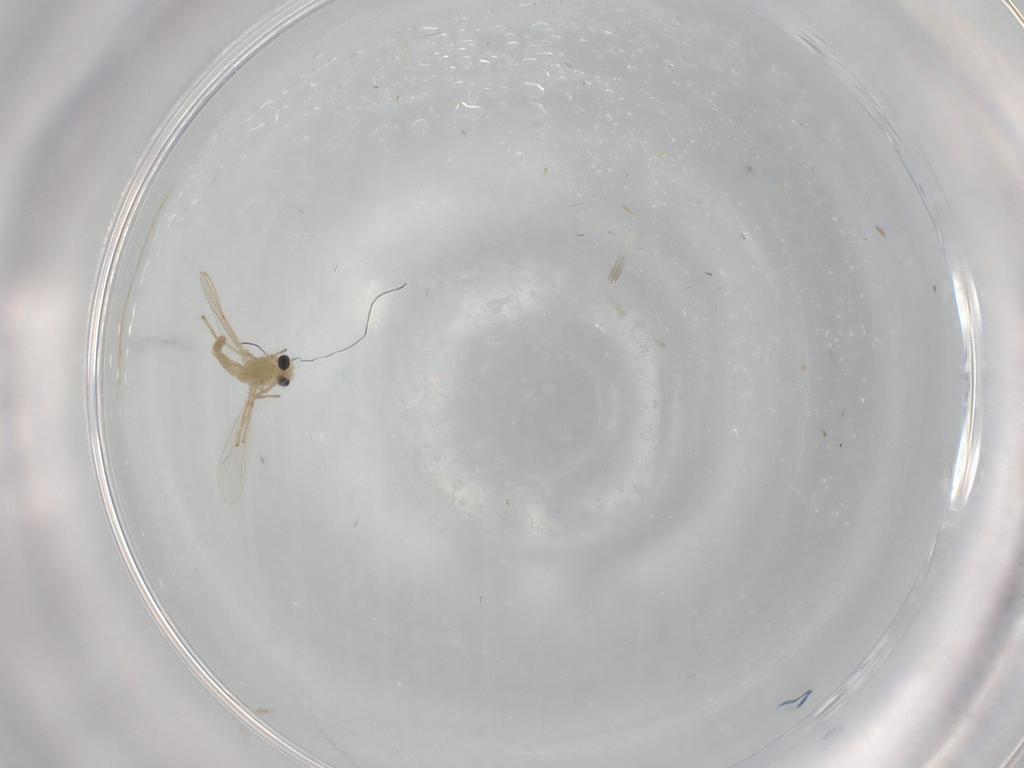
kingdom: Animalia
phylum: Arthropoda
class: Insecta
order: Diptera
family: Chironomidae
